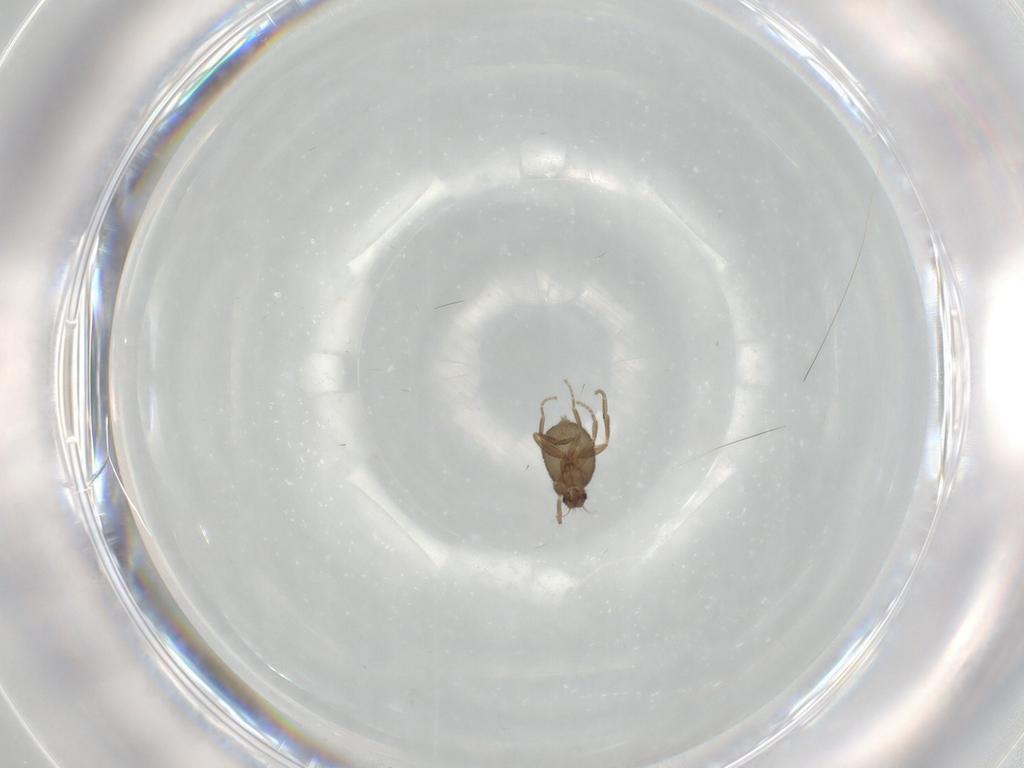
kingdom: Animalia
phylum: Arthropoda
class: Insecta
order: Diptera
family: Phoridae
